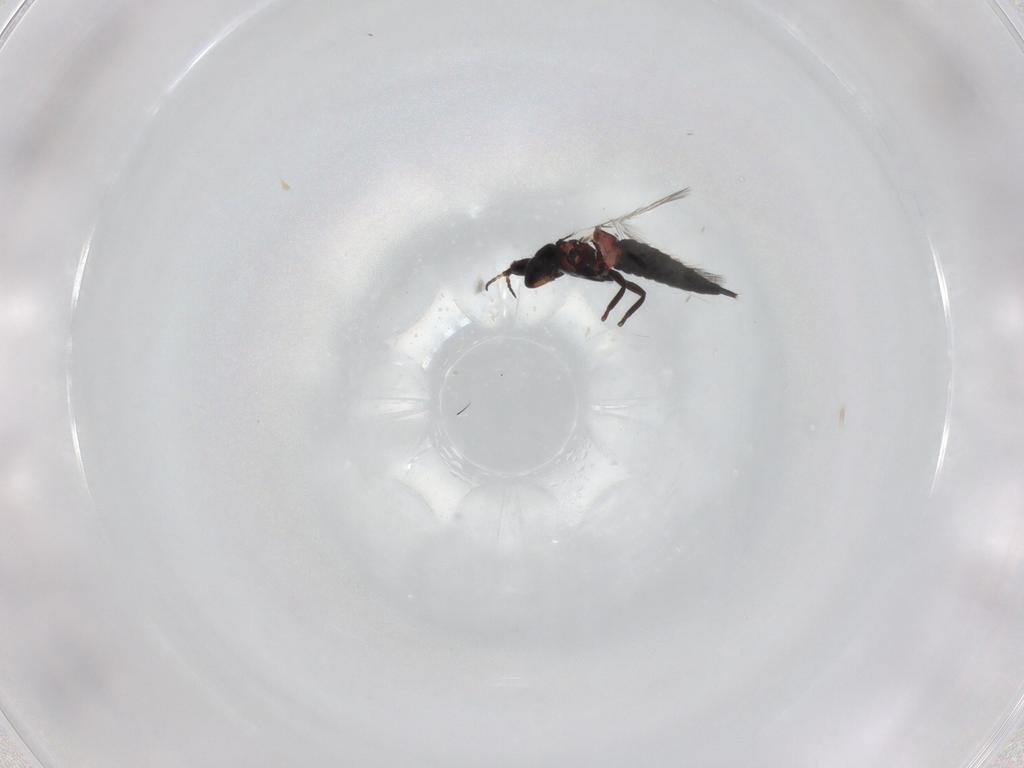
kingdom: Animalia
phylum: Arthropoda
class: Insecta
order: Thysanoptera
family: Phlaeothripidae
